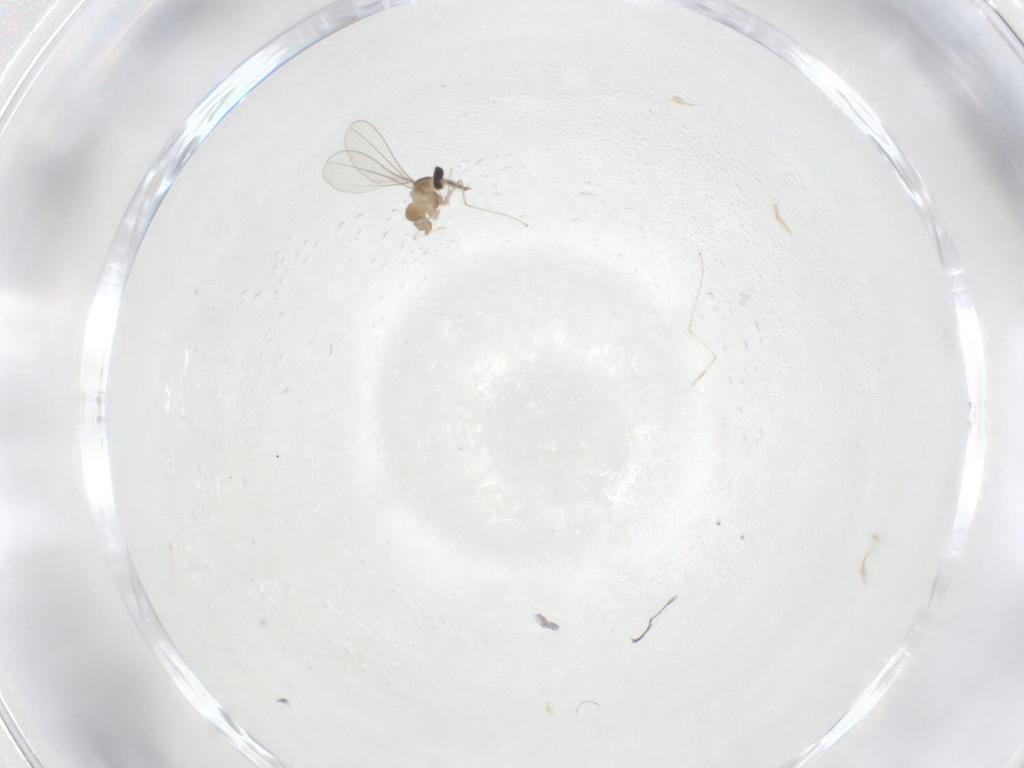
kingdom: Animalia
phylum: Arthropoda
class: Insecta
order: Diptera
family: Cecidomyiidae
